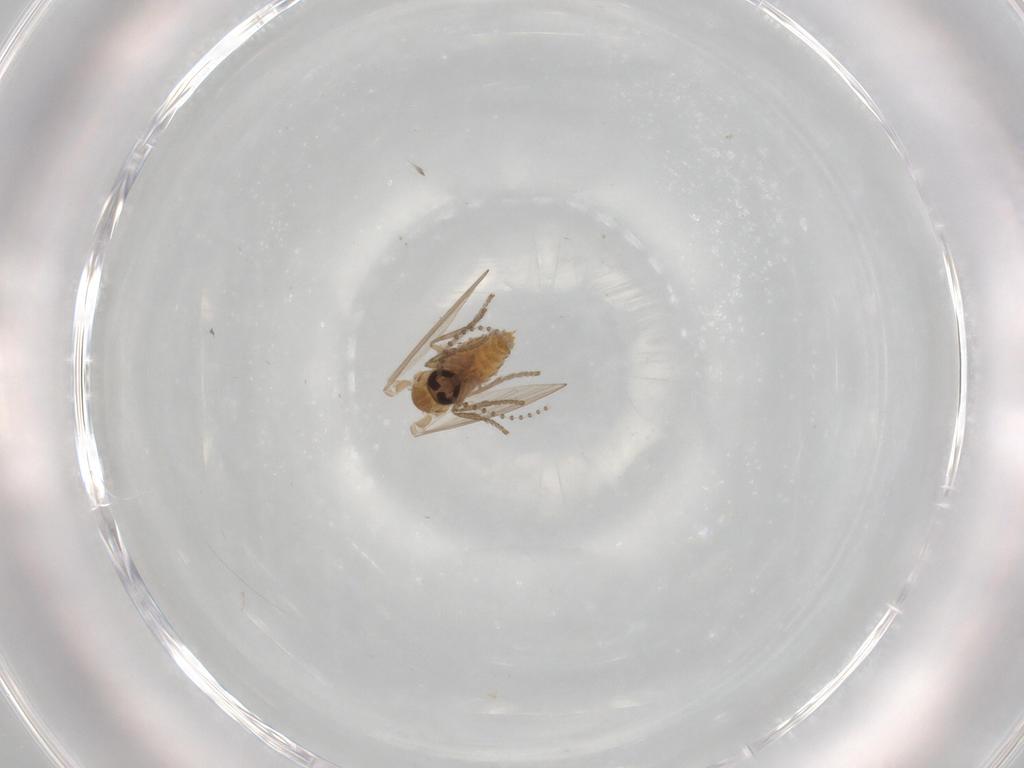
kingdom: Animalia
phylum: Arthropoda
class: Insecta
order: Diptera
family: Psychodidae
